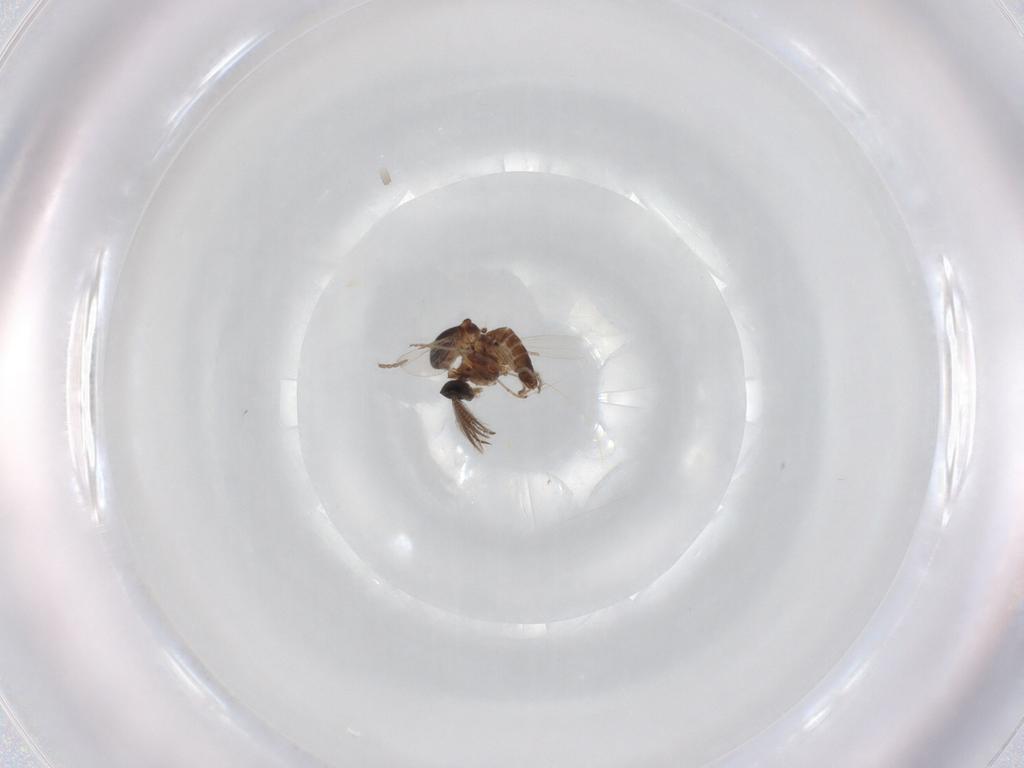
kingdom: Animalia
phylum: Arthropoda
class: Insecta
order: Diptera
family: Ceratopogonidae
